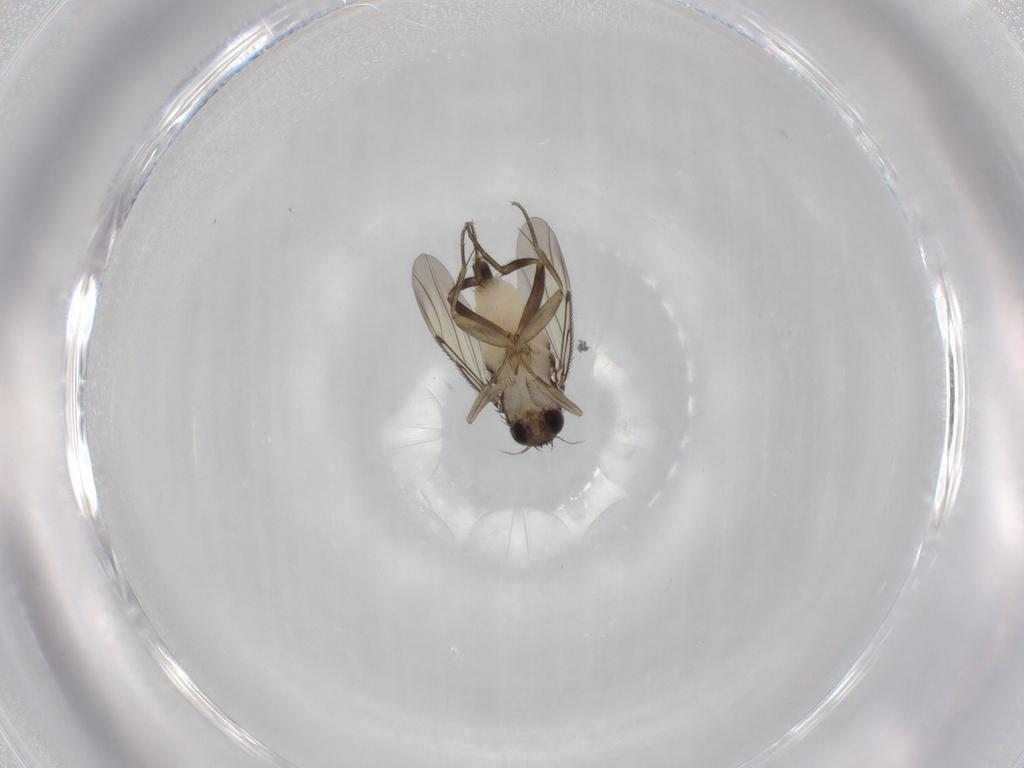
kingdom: Animalia
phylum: Arthropoda
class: Insecta
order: Diptera
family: Phoridae
